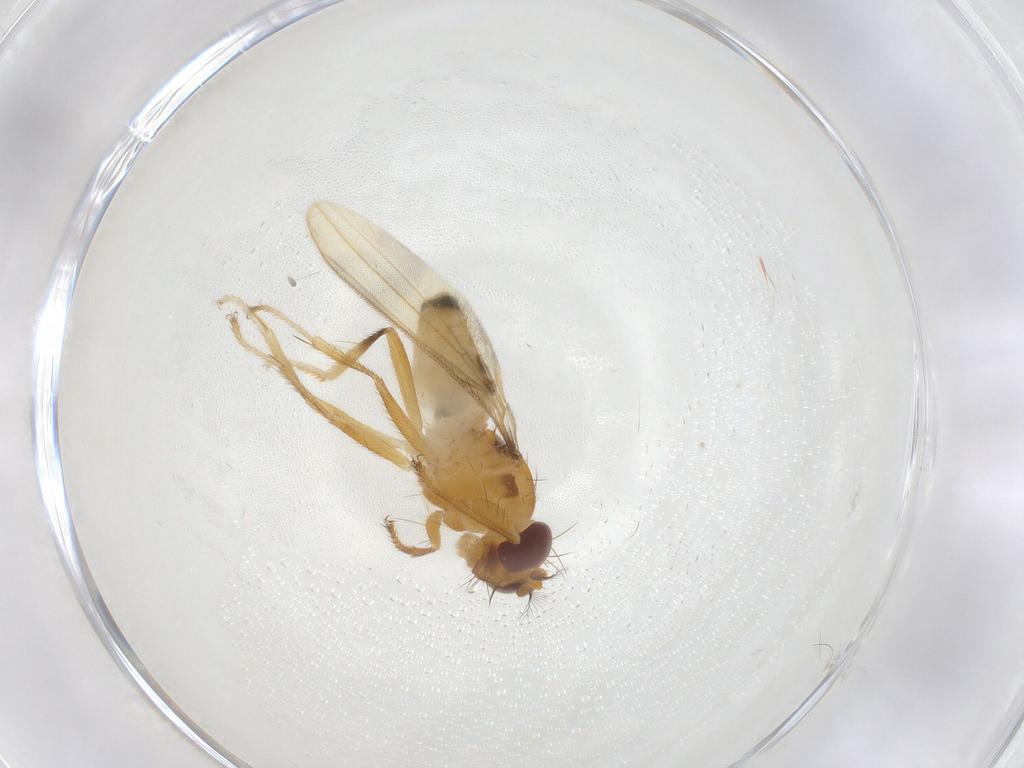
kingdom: Animalia
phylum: Arthropoda
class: Insecta
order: Diptera
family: Periscelididae
